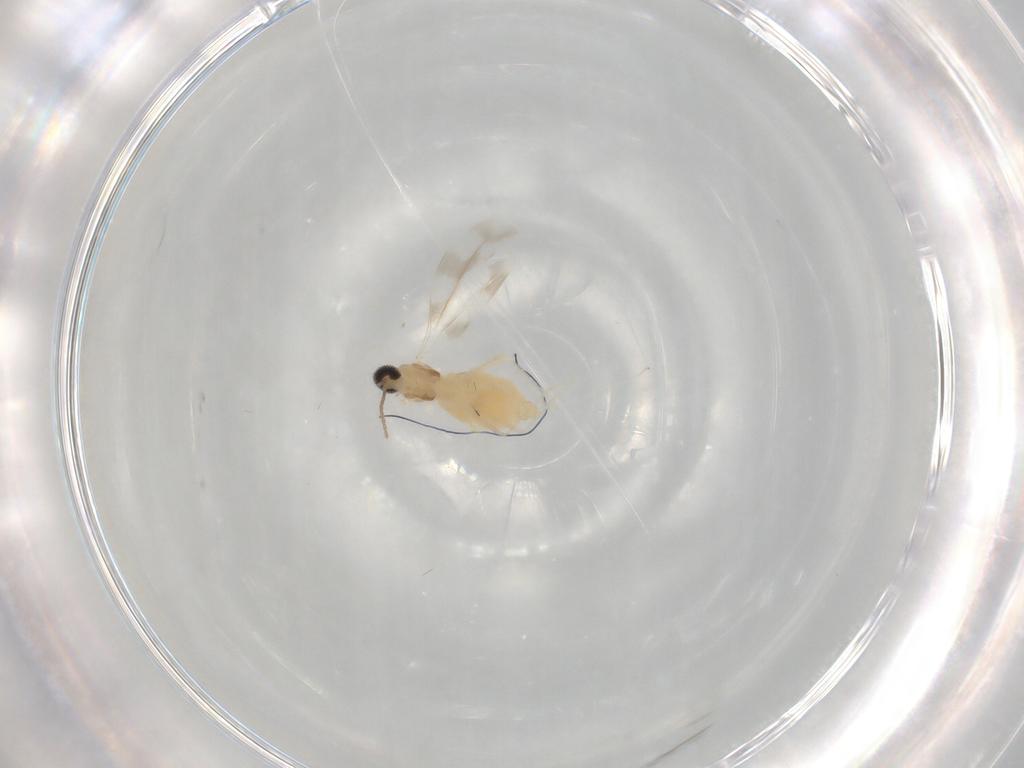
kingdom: Animalia
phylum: Arthropoda
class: Insecta
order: Diptera
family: Cecidomyiidae
